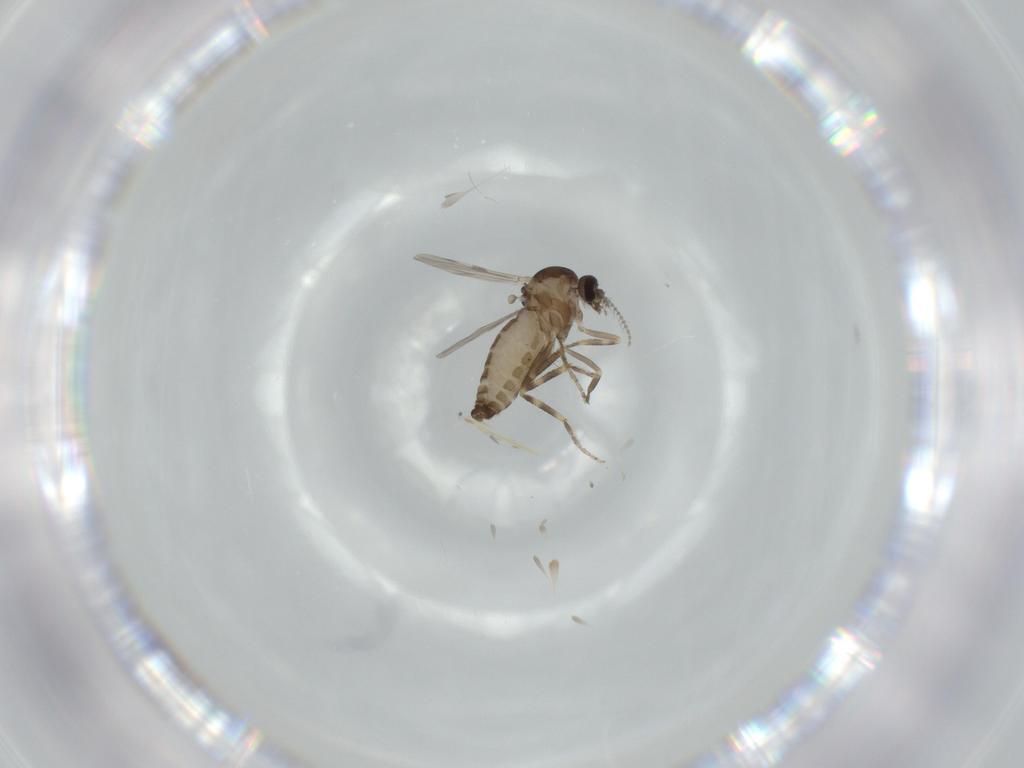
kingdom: Animalia
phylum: Arthropoda
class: Insecta
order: Diptera
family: Ceratopogonidae
